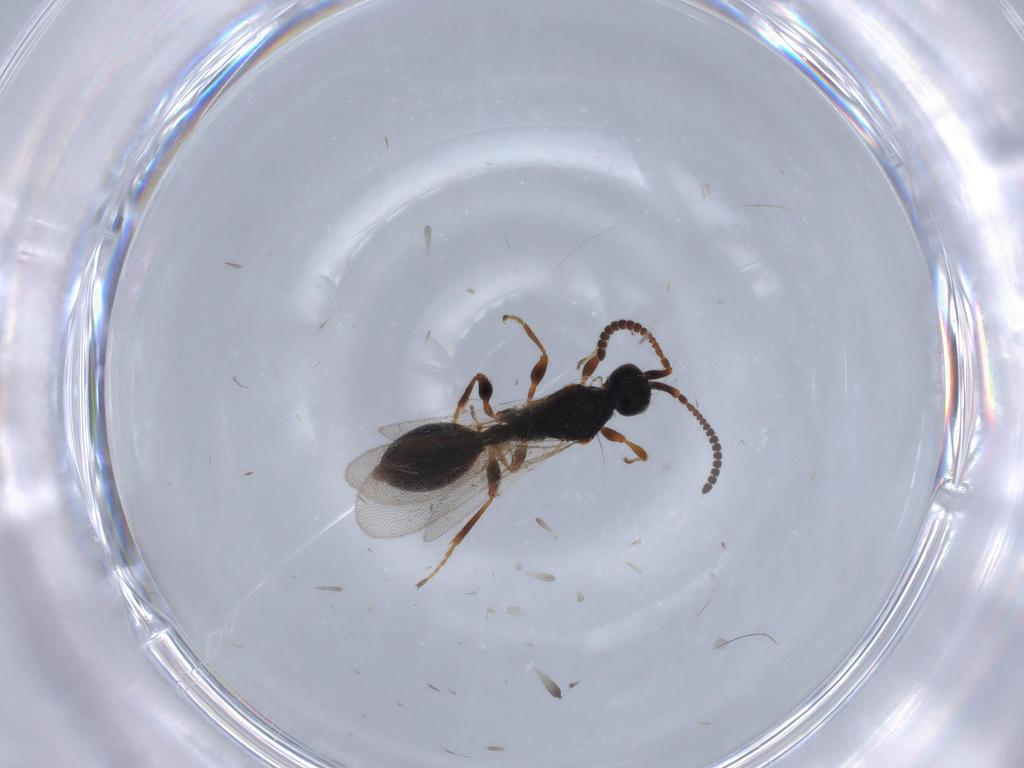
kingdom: Animalia
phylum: Arthropoda
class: Insecta
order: Hymenoptera
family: Diapriidae
